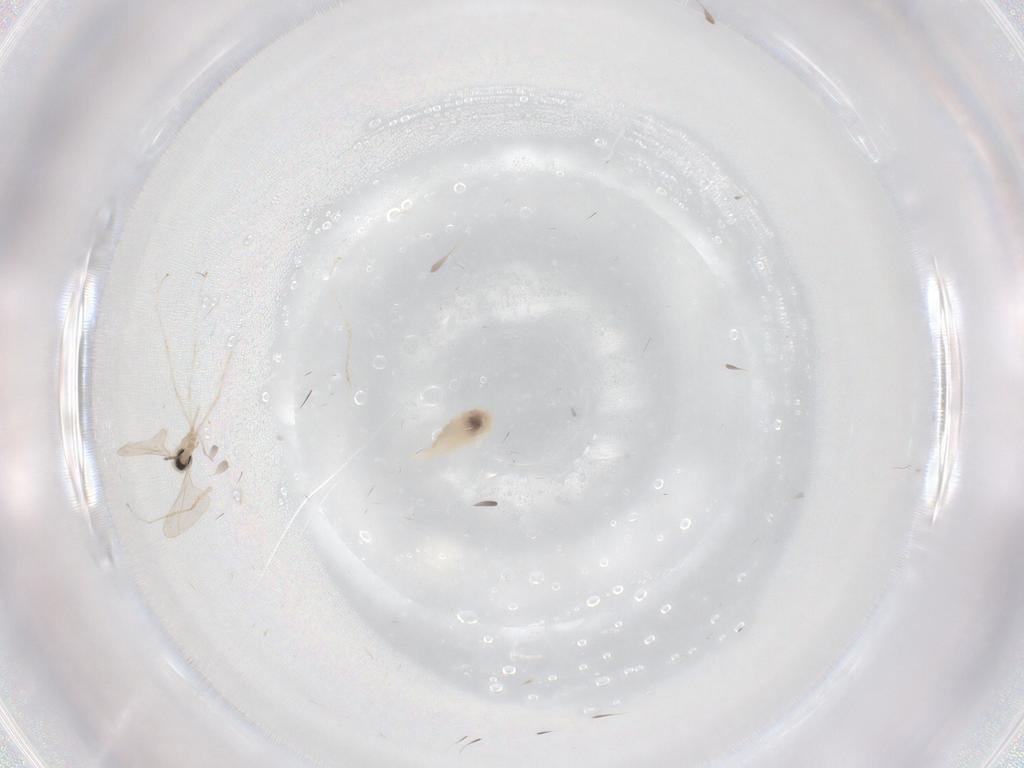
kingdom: Animalia
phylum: Arthropoda
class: Insecta
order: Diptera
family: Cecidomyiidae
